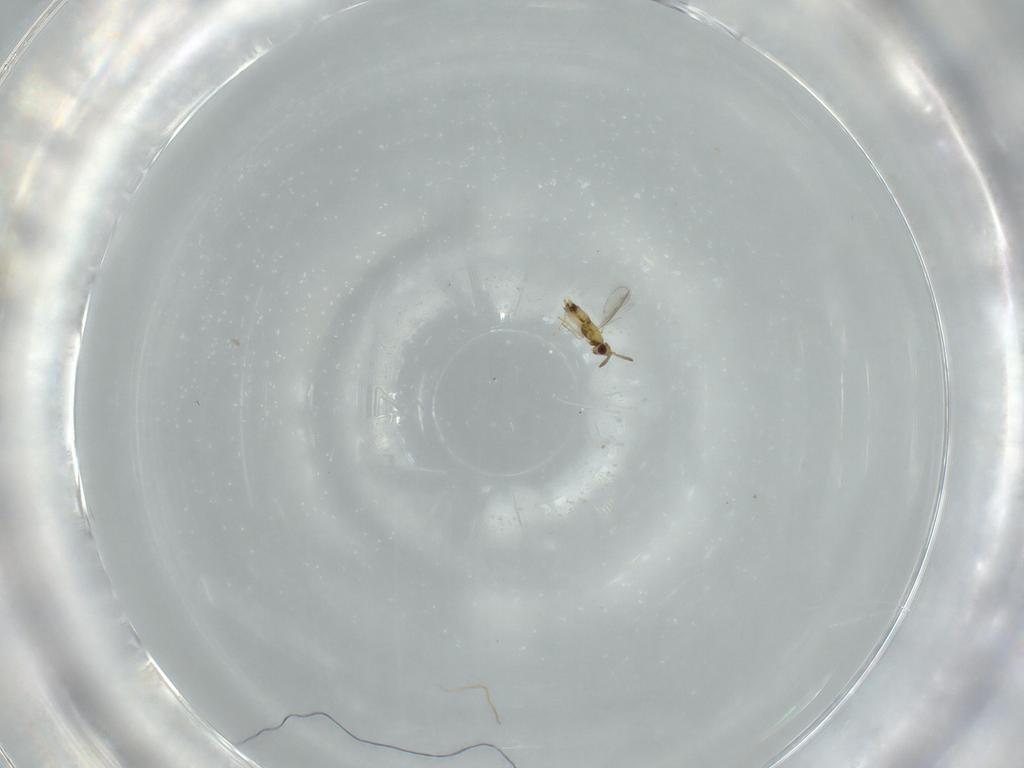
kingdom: Animalia
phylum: Arthropoda
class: Insecta
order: Hymenoptera
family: Aphelinidae
